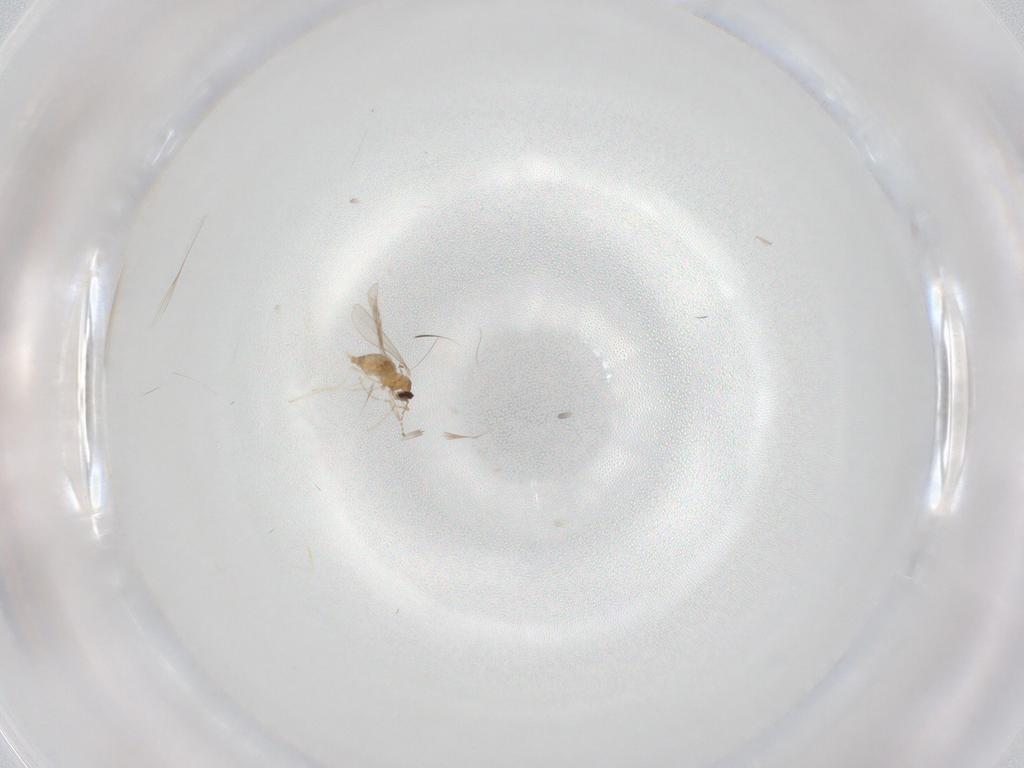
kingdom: Animalia
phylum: Arthropoda
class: Insecta
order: Diptera
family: Cecidomyiidae
